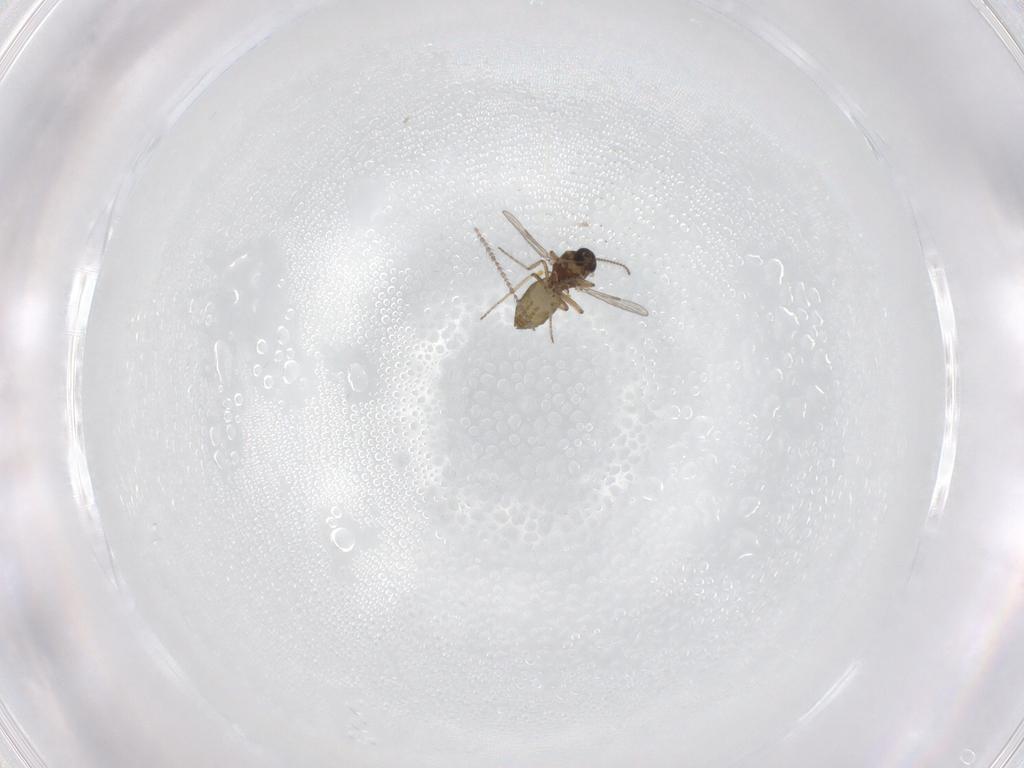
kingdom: Animalia
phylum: Arthropoda
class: Insecta
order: Diptera
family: Ceratopogonidae
